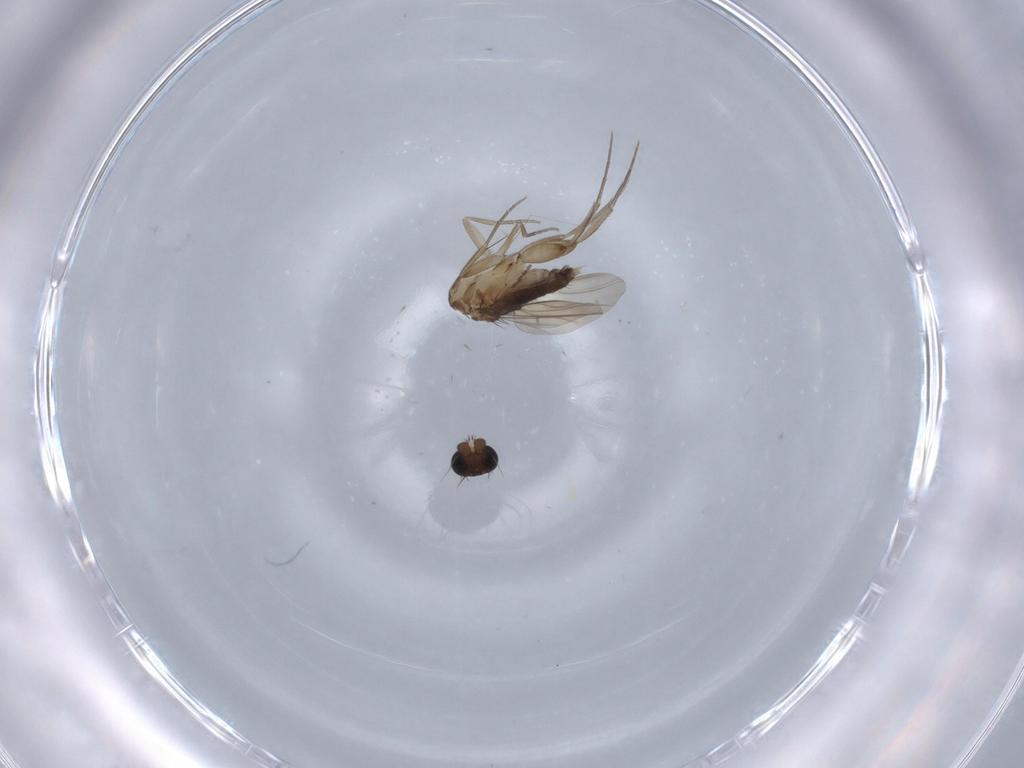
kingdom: Animalia
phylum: Arthropoda
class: Insecta
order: Diptera
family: Phoridae
